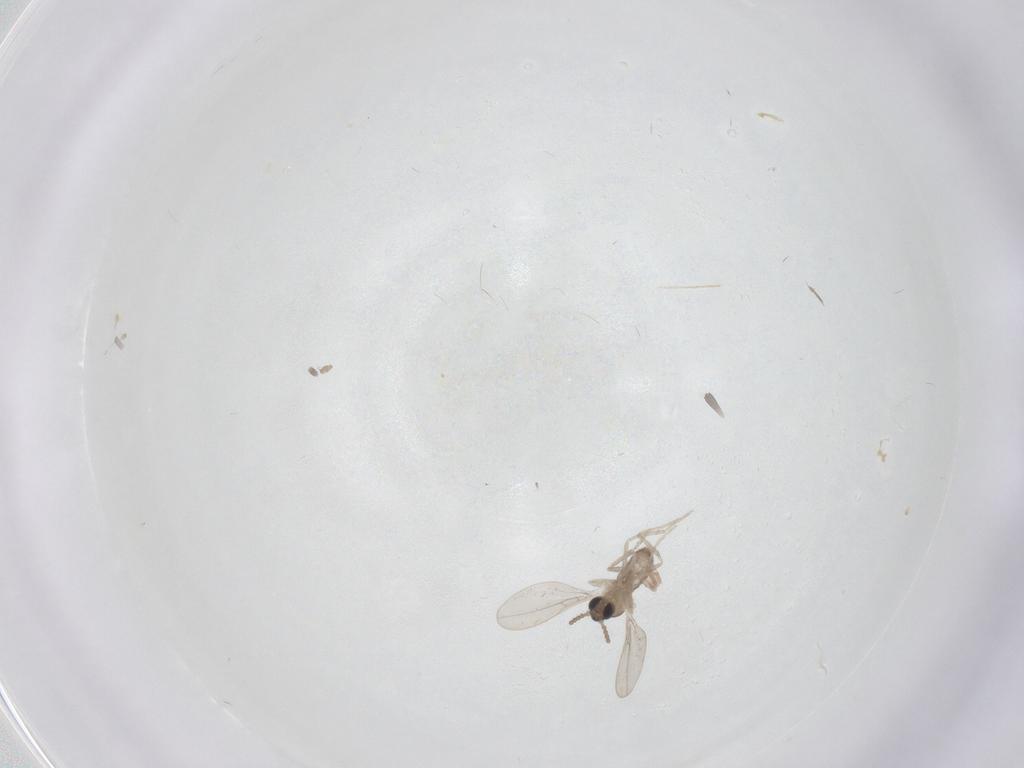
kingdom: Animalia
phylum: Arthropoda
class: Insecta
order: Diptera
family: Cecidomyiidae
